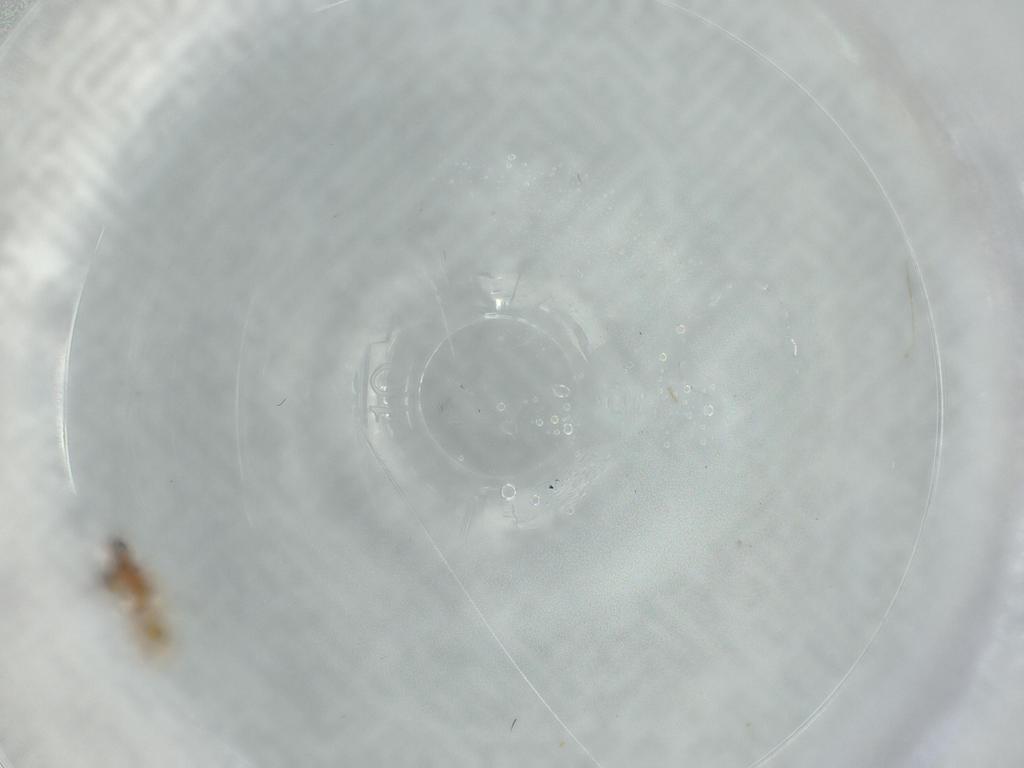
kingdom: Animalia
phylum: Arthropoda
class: Insecta
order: Hymenoptera
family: Scelionidae
